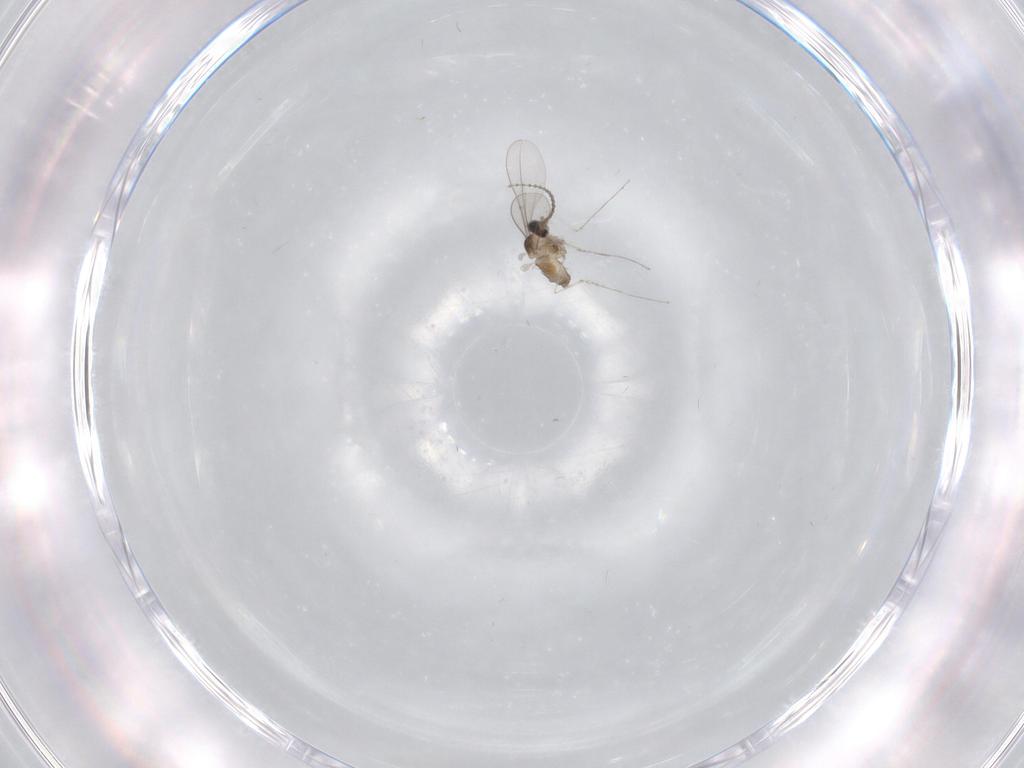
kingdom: Animalia
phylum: Arthropoda
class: Insecta
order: Diptera
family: Cecidomyiidae
